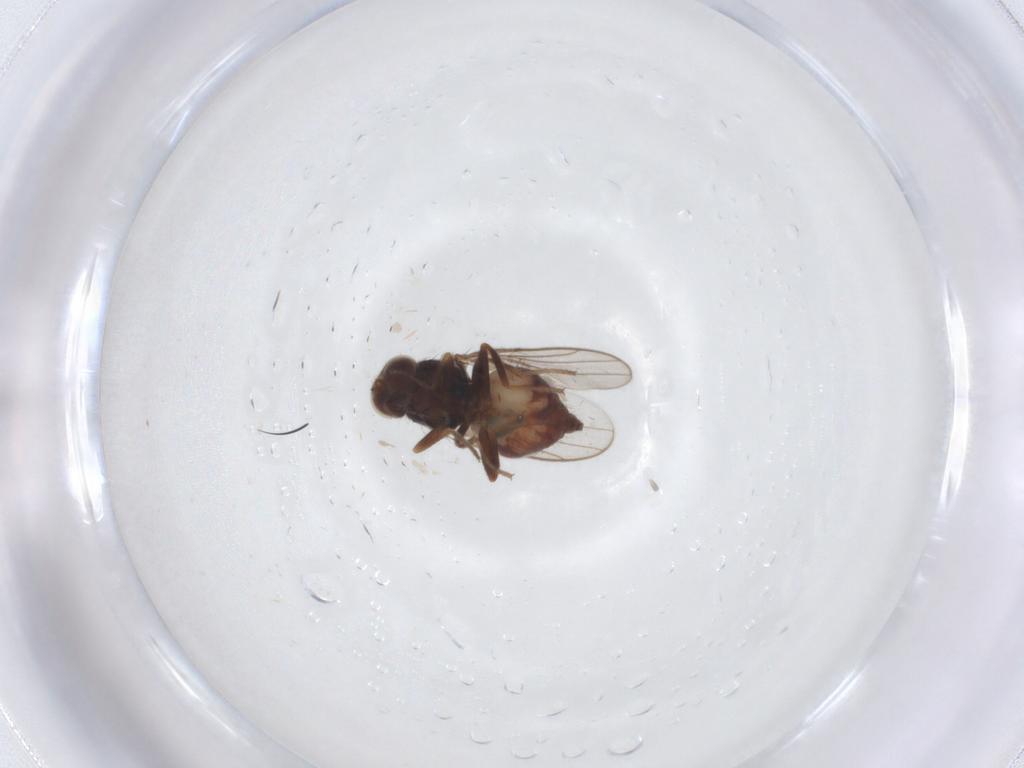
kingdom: Animalia
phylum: Arthropoda
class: Insecta
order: Diptera
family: Chloropidae
